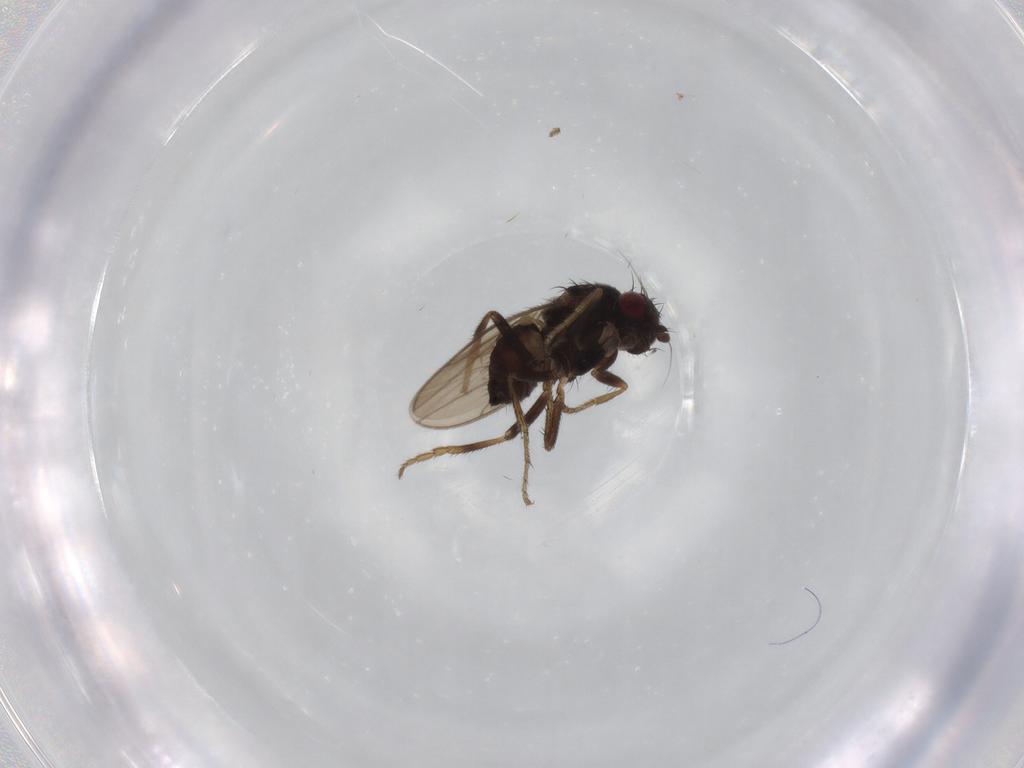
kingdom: Animalia
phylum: Arthropoda
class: Insecta
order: Diptera
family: Sphaeroceridae
